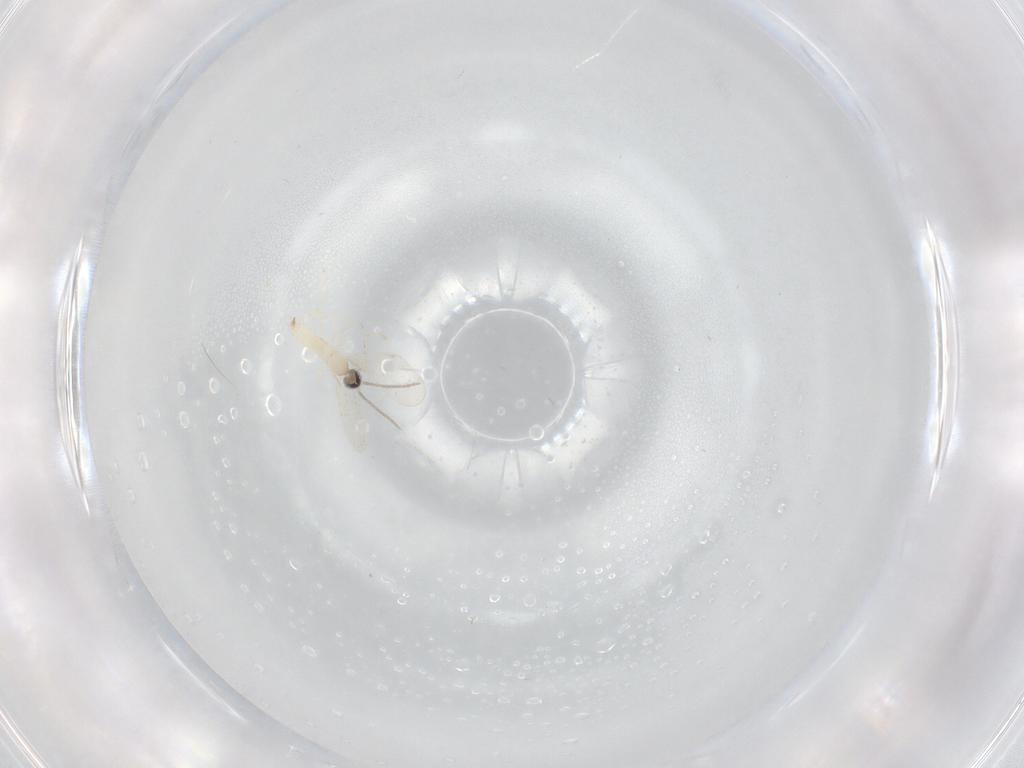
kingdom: Animalia
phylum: Arthropoda
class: Insecta
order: Diptera
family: Cecidomyiidae
